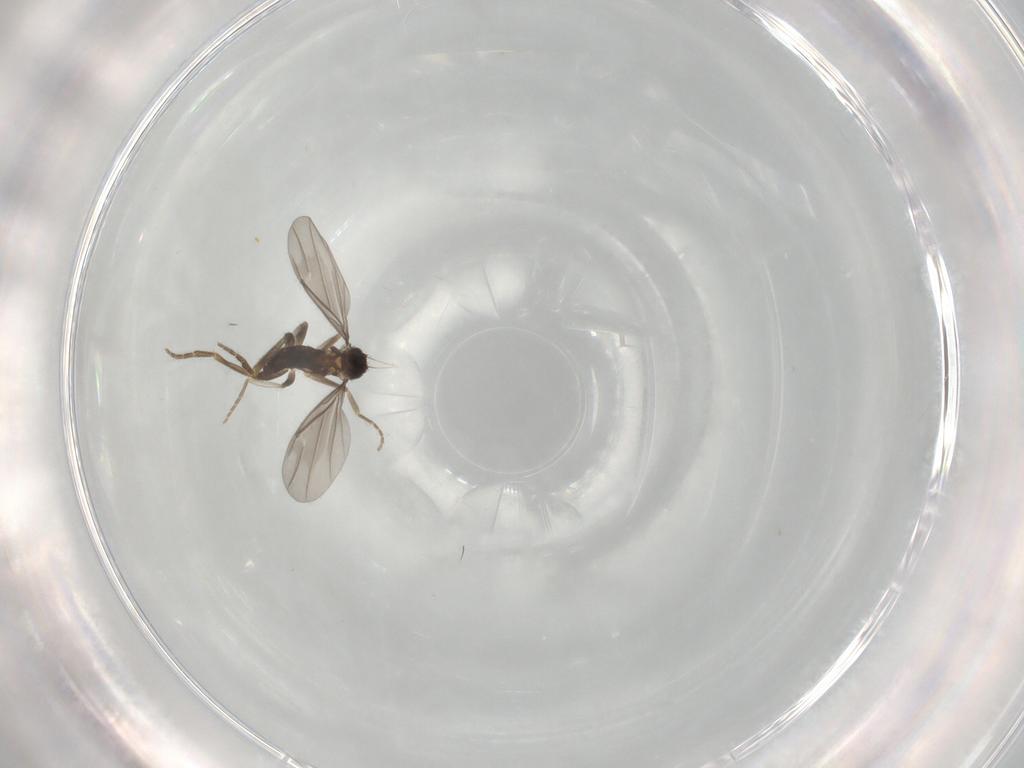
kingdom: Animalia
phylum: Arthropoda
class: Insecta
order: Diptera
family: Phoridae
